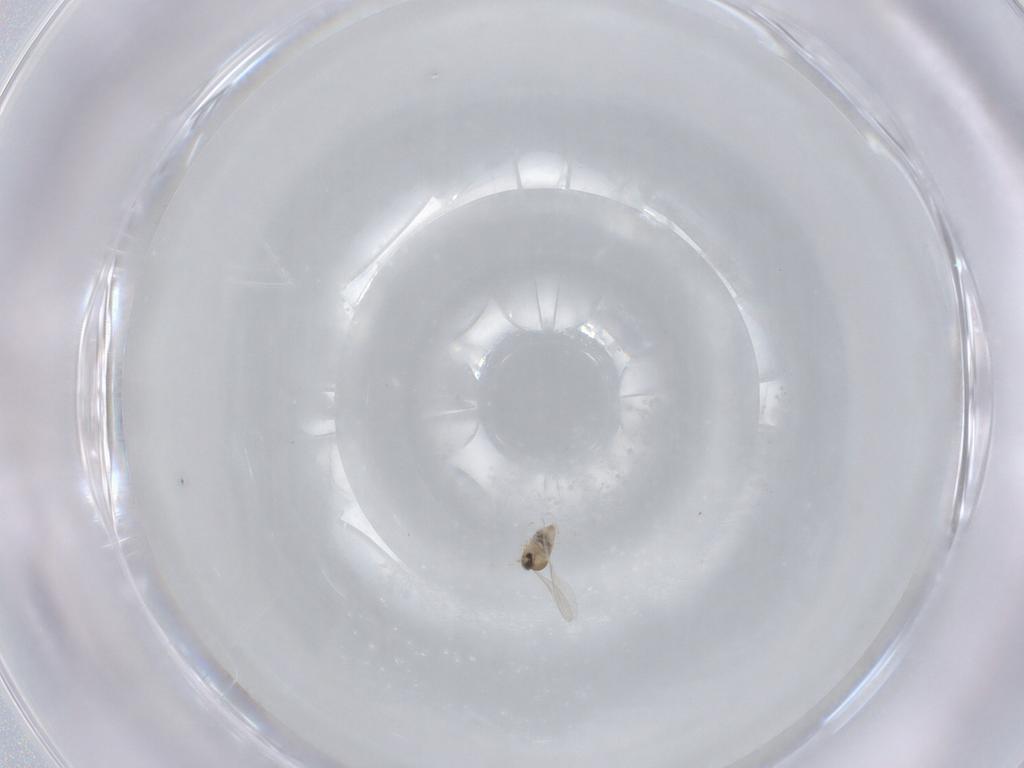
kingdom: Animalia
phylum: Arthropoda
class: Insecta
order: Diptera
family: Cecidomyiidae
